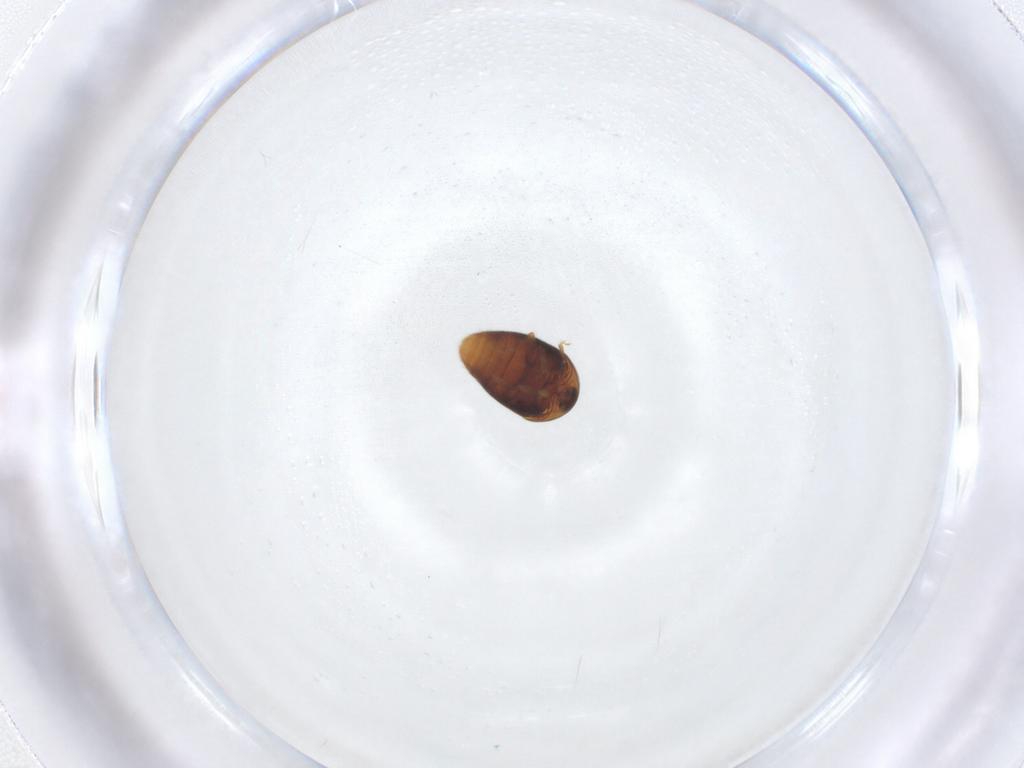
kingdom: Animalia
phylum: Arthropoda
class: Insecta
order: Coleoptera
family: Corylophidae
